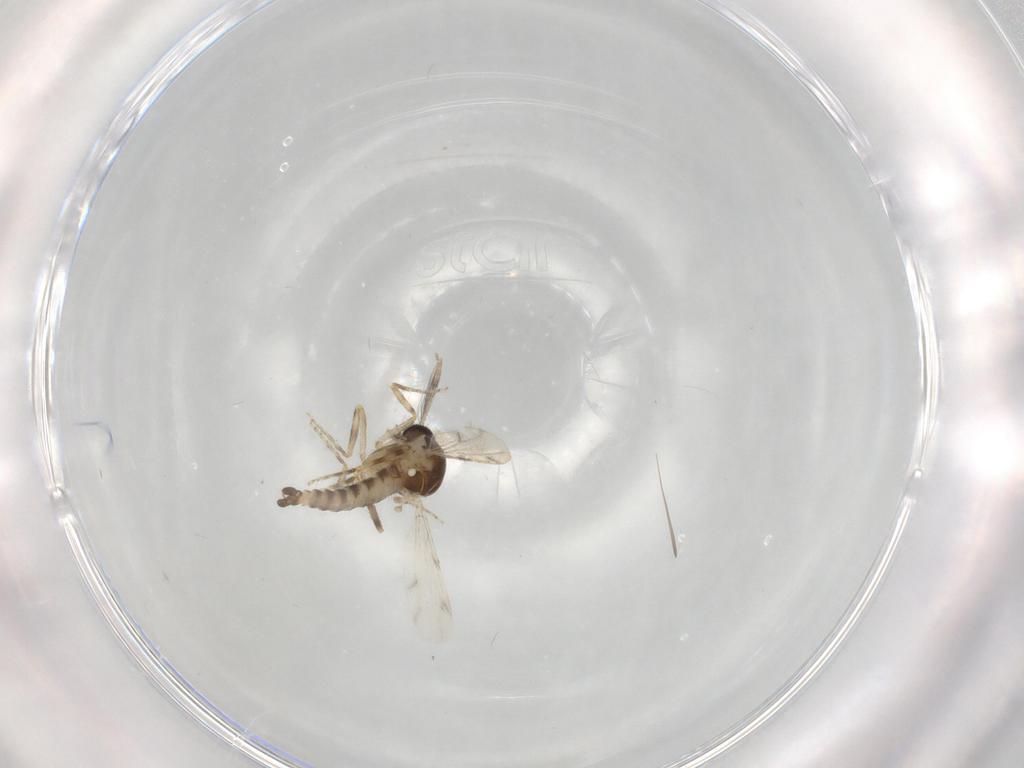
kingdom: Animalia
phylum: Arthropoda
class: Insecta
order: Diptera
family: Ceratopogonidae
